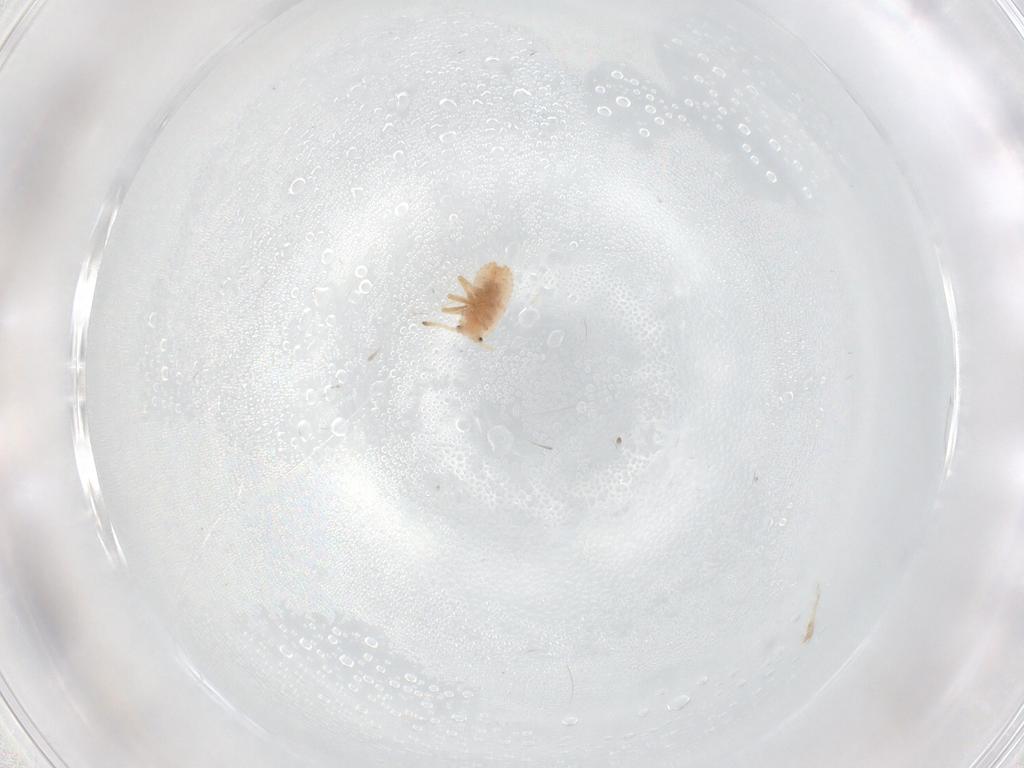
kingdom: Animalia
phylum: Arthropoda
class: Insecta
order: Hemiptera
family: Coccoidea_incertae_sedis
